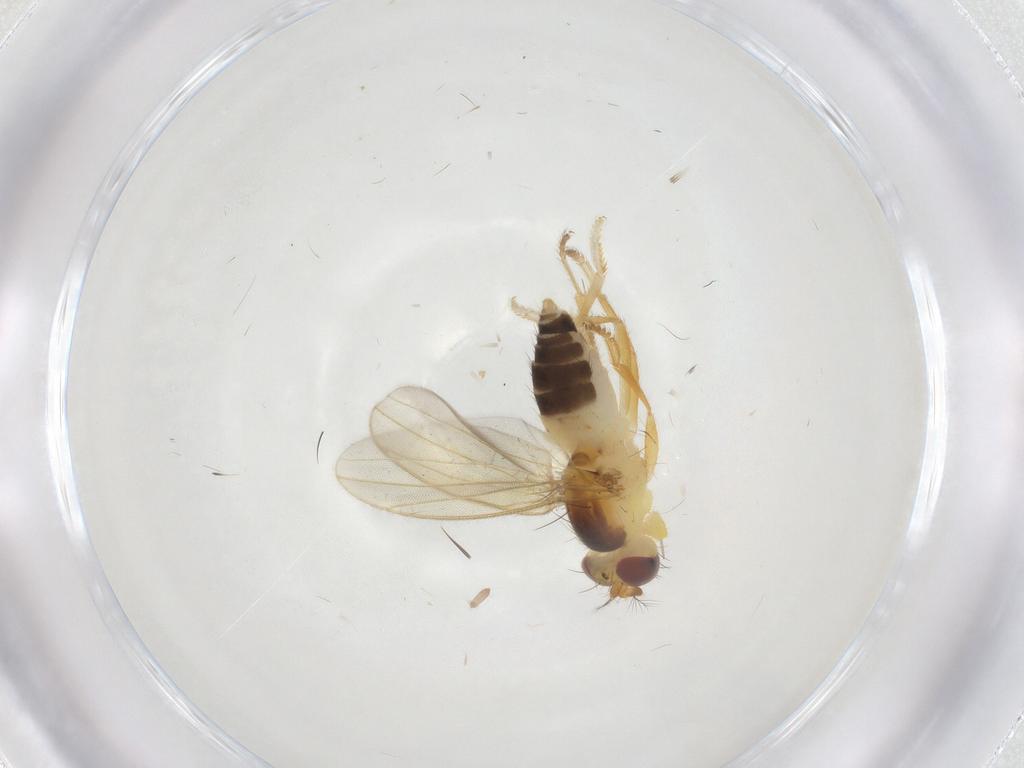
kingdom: Animalia
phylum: Arthropoda
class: Insecta
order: Diptera
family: Periscelididae
